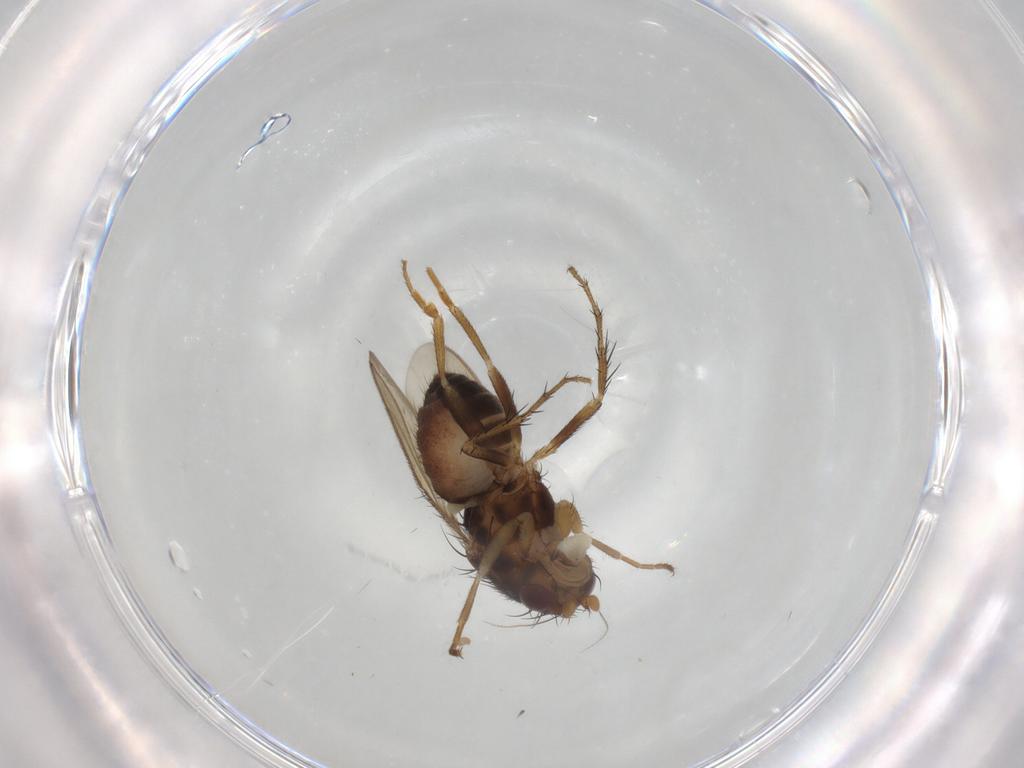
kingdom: Animalia
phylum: Arthropoda
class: Insecta
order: Diptera
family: Sphaeroceridae
